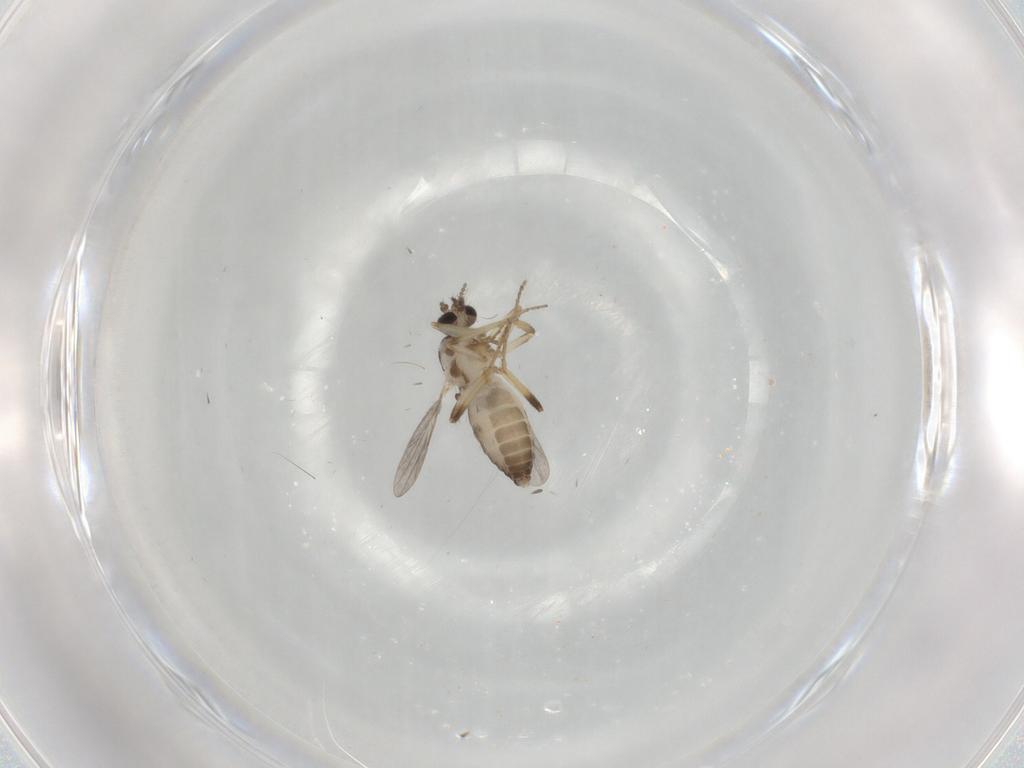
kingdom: Animalia
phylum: Arthropoda
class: Insecta
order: Diptera
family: Ceratopogonidae
